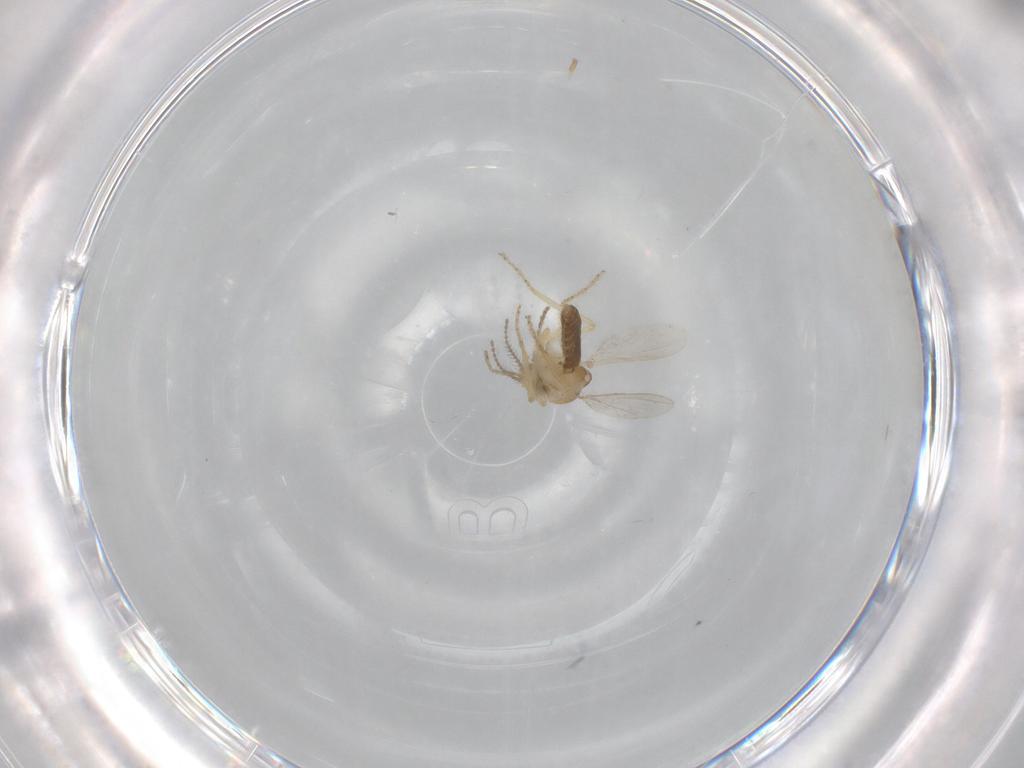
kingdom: Animalia
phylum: Arthropoda
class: Insecta
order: Diptera
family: Ceratopogonidae
